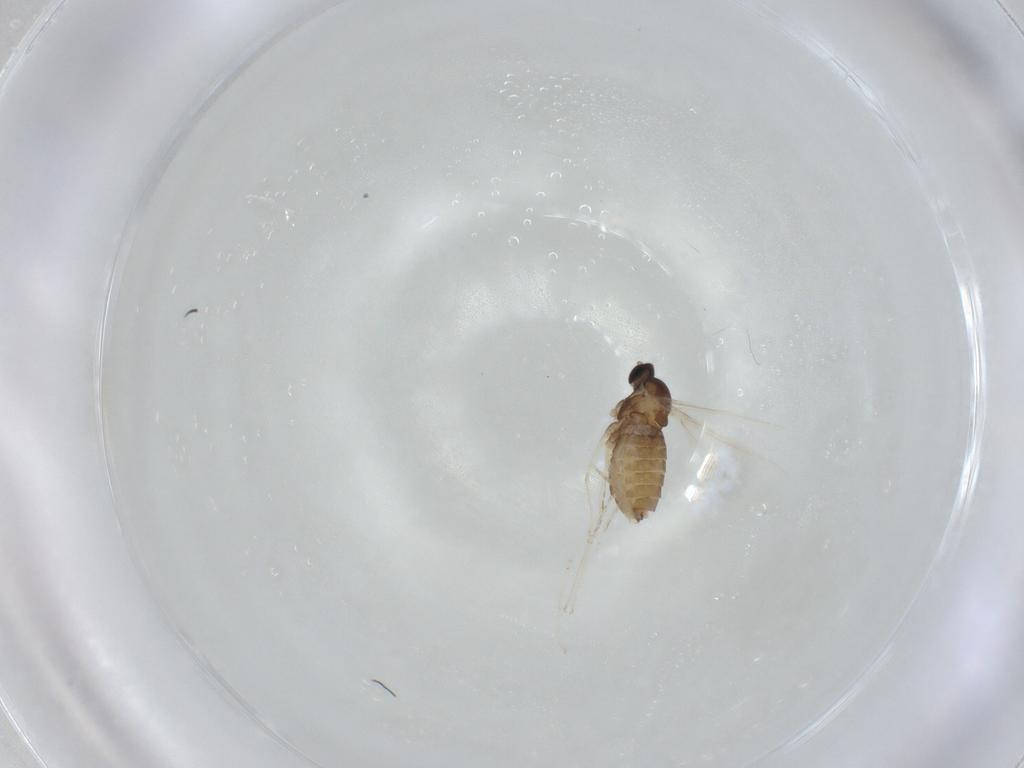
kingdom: Animalia
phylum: Arthropoda
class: Insecta
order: Diptera
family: Cecidomyiidae
